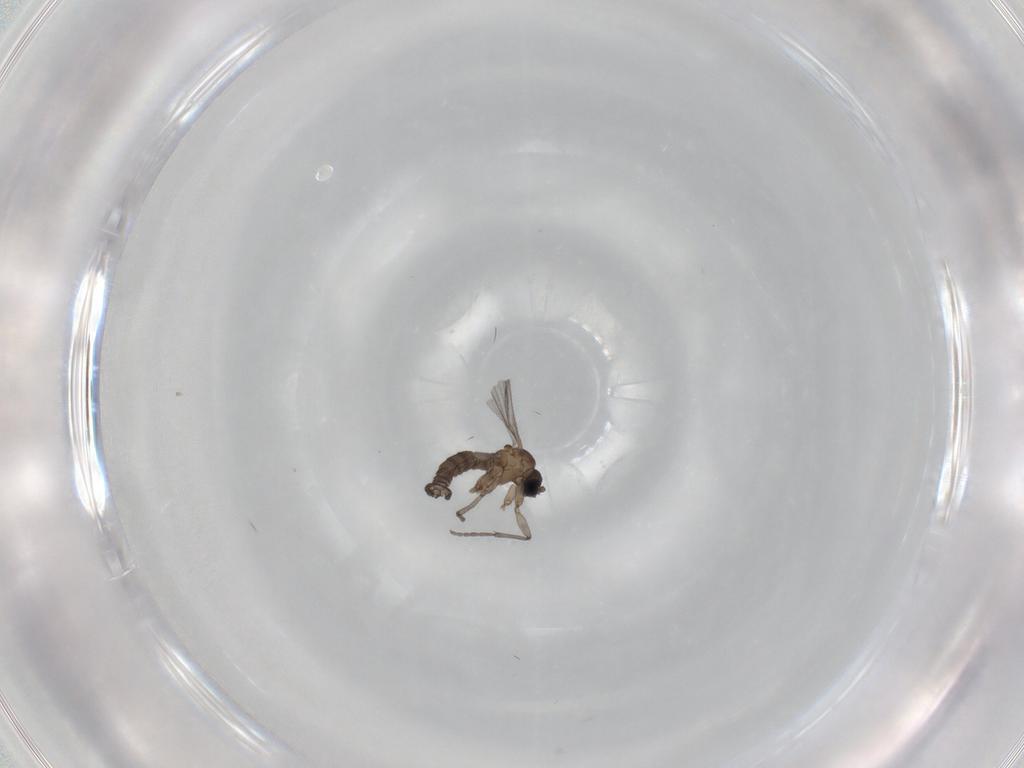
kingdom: Animalia
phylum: Arthropoda
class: Insecta
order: Diptera
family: Sciaridae
